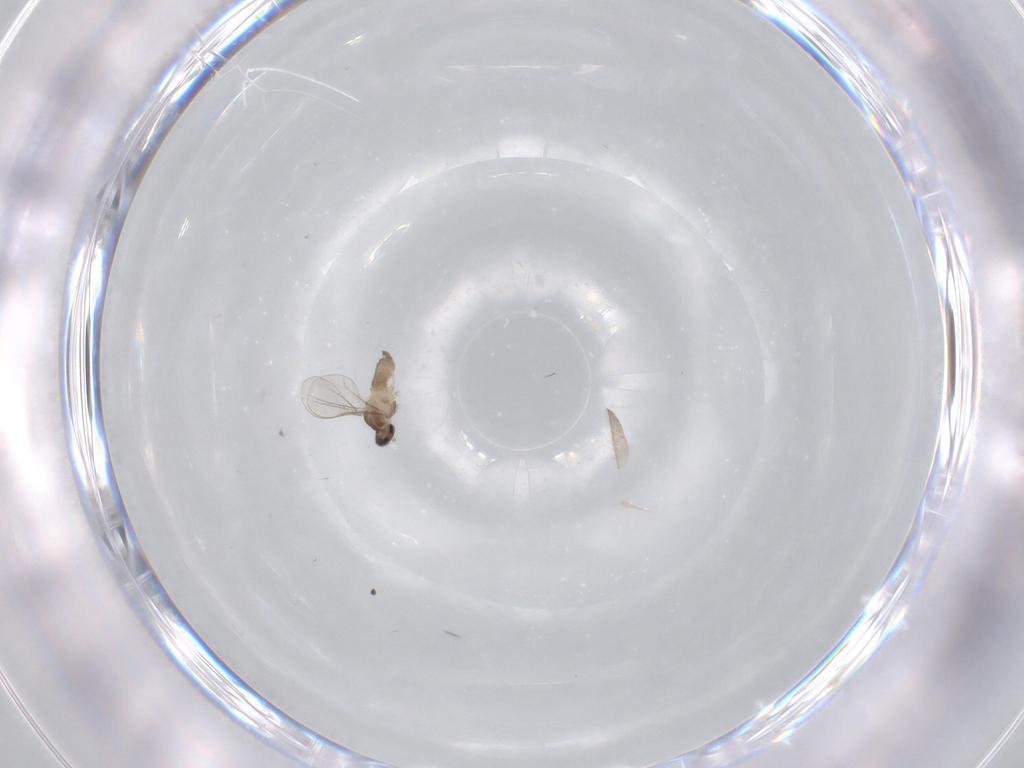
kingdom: Animalia
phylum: Arthropoda
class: Insecta
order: Diptera
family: Cecidomyiidae
